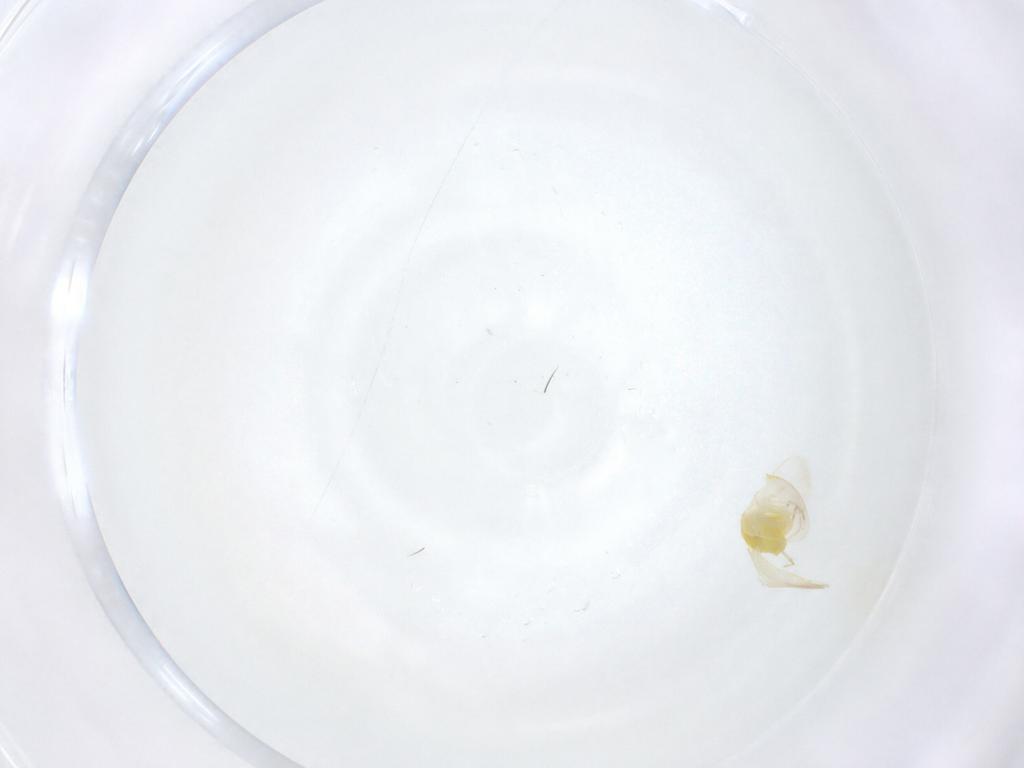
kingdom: Animalia
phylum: Arthropoda
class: Insecta
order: Hemiptera
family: Aleyrodidae
